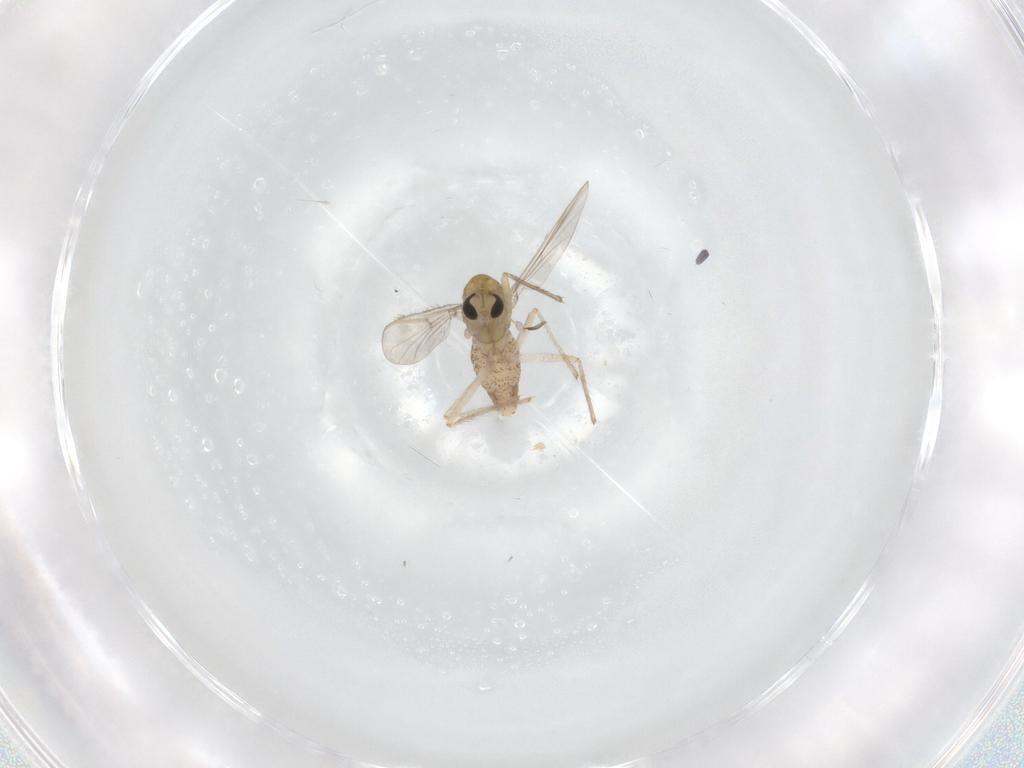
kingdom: Animalia
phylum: Arthropoda
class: Insecta
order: Diptera
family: Chironomidae
